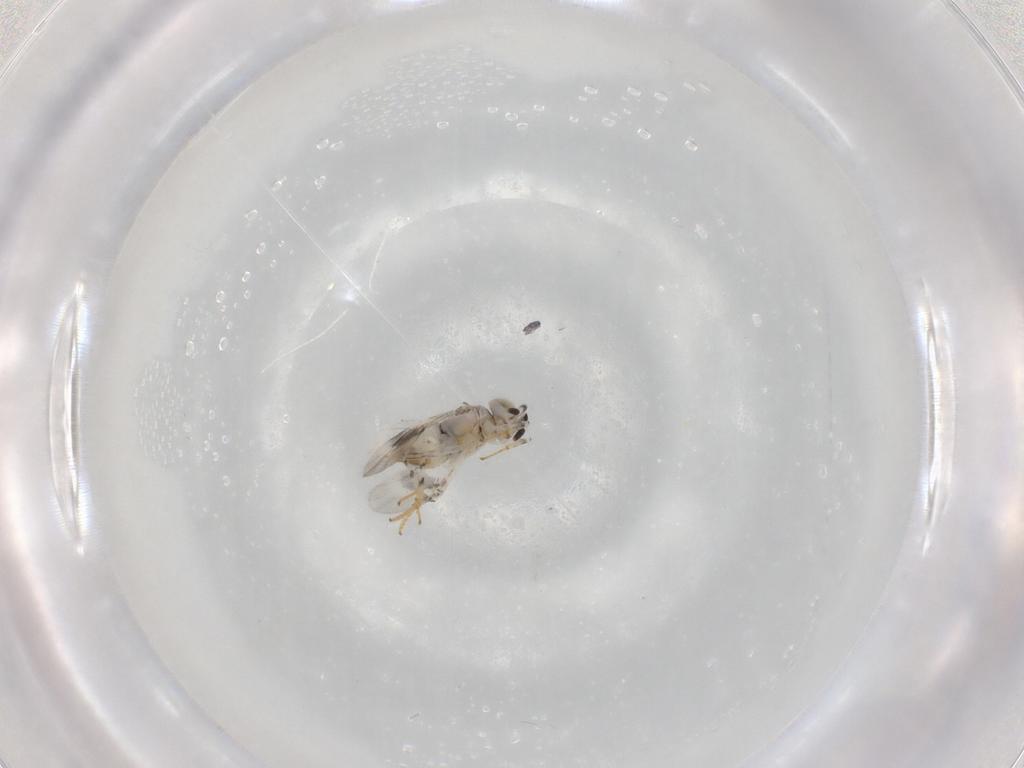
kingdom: Animalia
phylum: Arthropoda
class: Insecta
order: Hymenoptera
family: Encyrtidae
